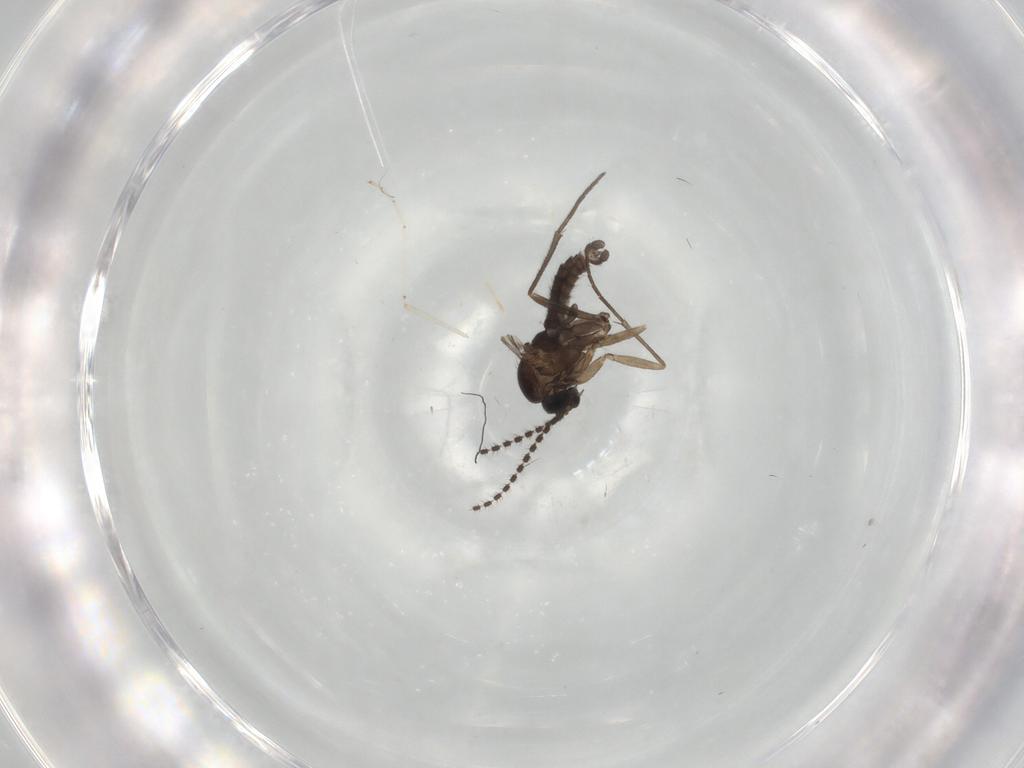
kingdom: Animalia
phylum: Arthropoda
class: Insecta
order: Diptera
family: Sciaridae
